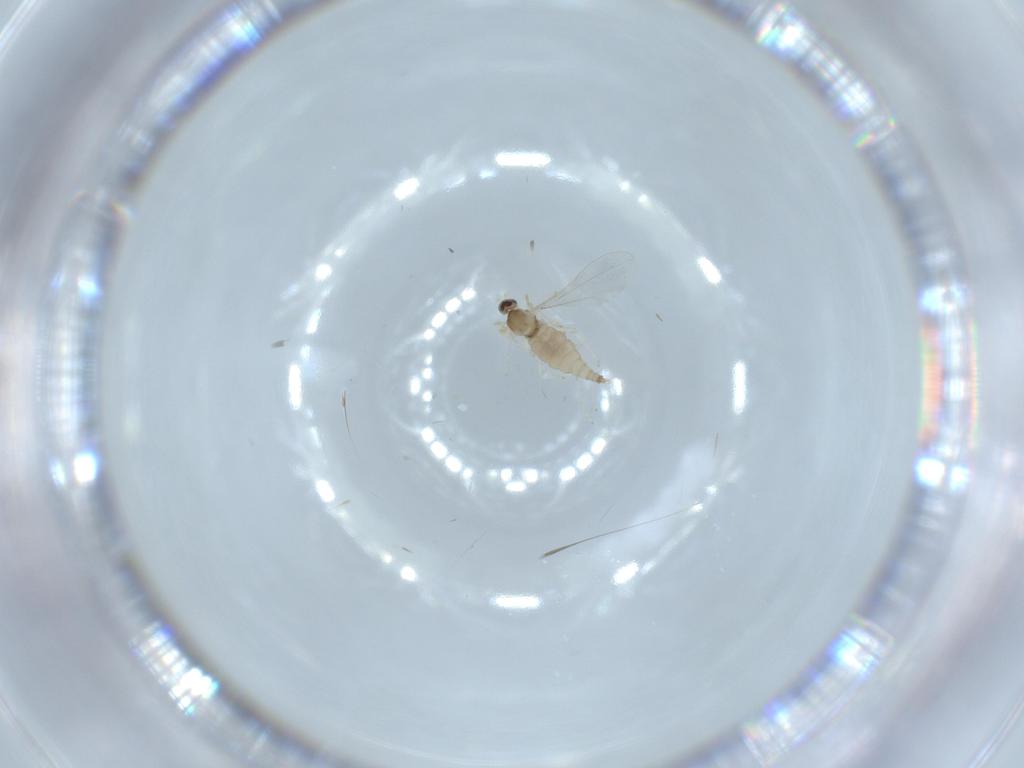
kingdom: Animalia
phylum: Arthropoda
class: Insecta
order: Diptera
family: Cecidomyiidae
